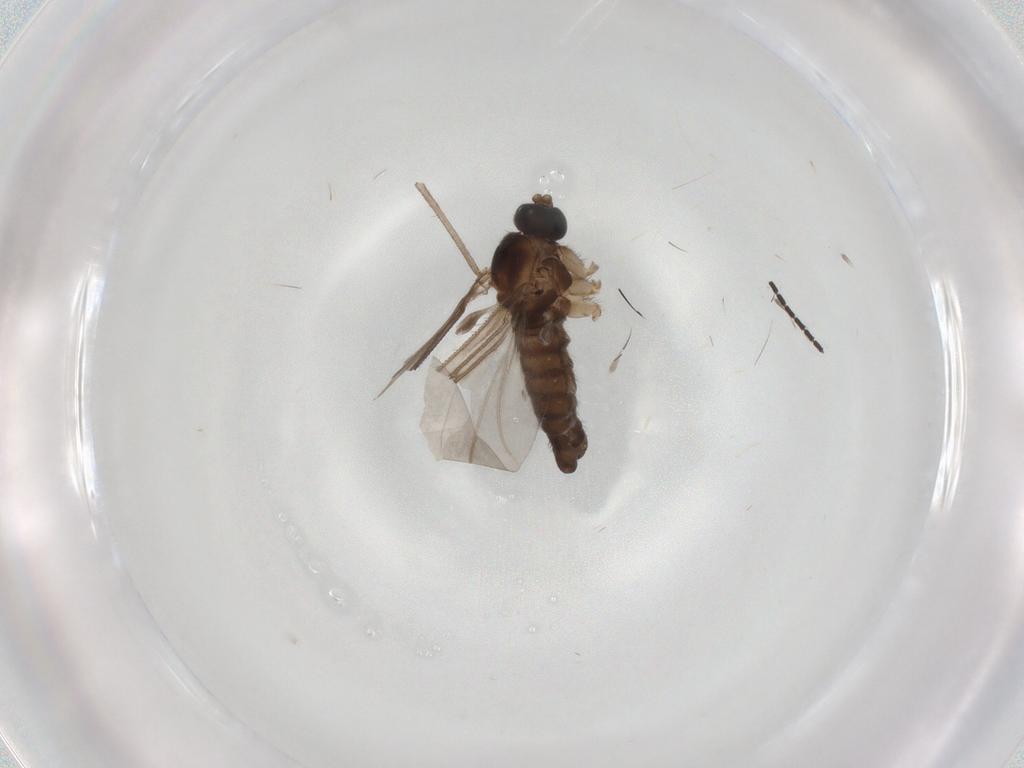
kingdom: Animalia
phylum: Arthropoda
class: Insecta
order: Diptera
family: Sciaridae
